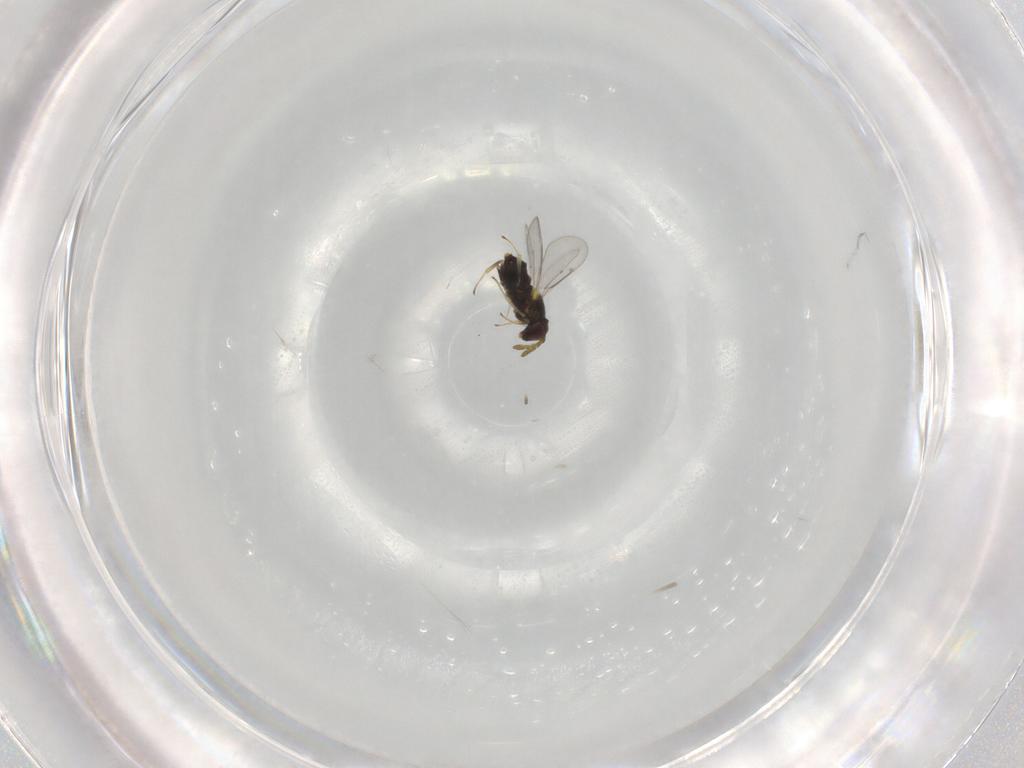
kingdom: Animalia
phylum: Arthropoda
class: Insecta
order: Hymenoptera
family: Aphelinidae
